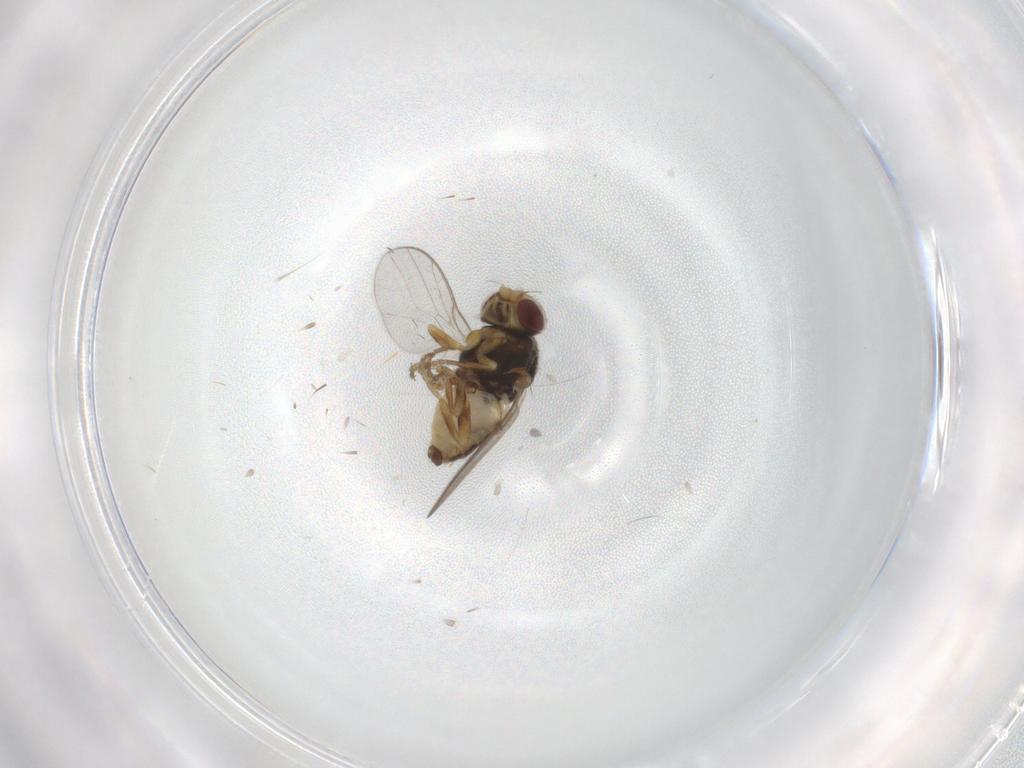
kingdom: Animalia
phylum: Arthropoda
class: Insecta
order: Diptera
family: Chloropidae
